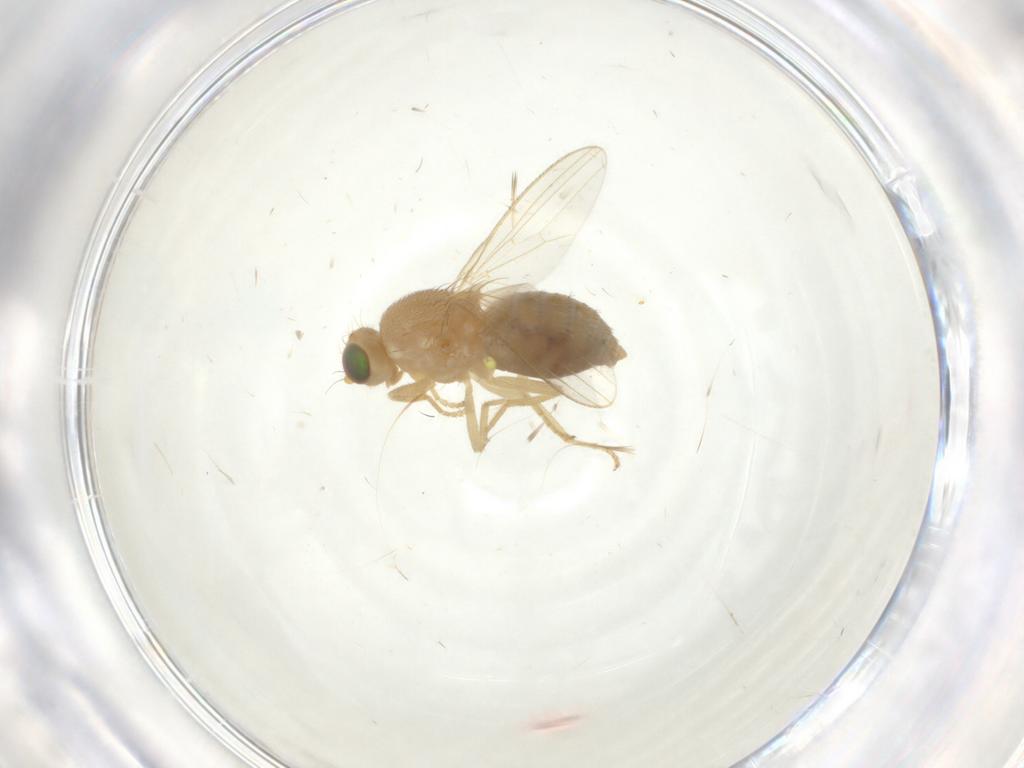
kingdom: Animalia
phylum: Arthropoda
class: Insecta
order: Diptera
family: Chyromyidae
